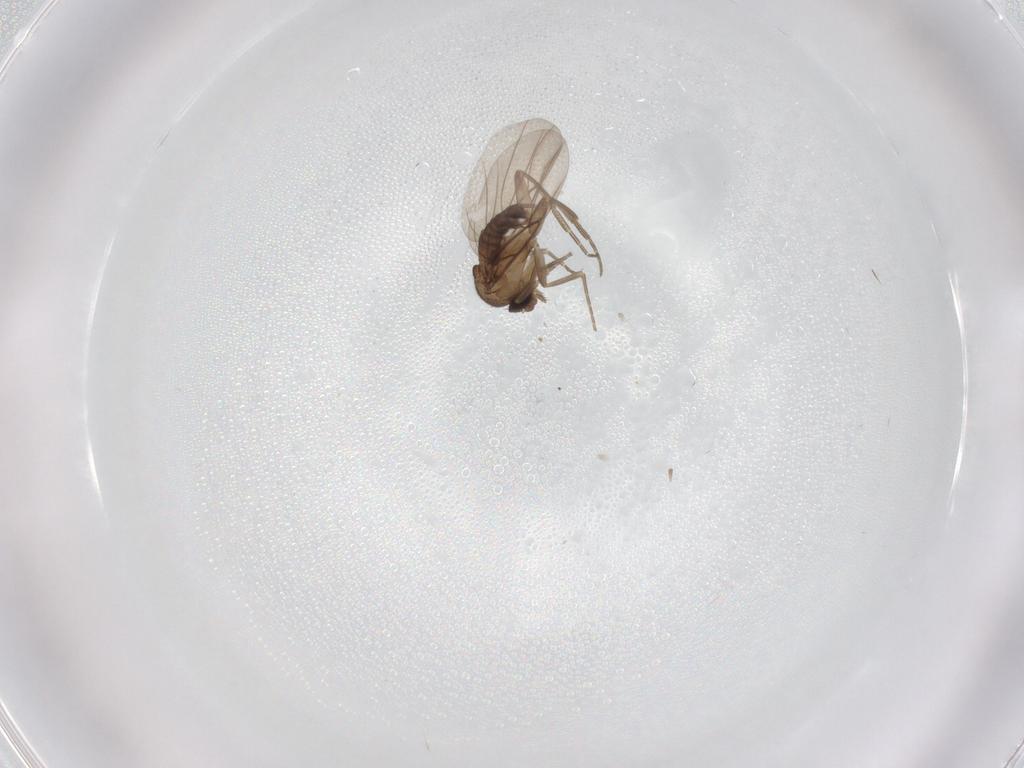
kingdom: Animalia
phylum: Arthropoda
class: Insecta
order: Diptera
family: Phoridae
